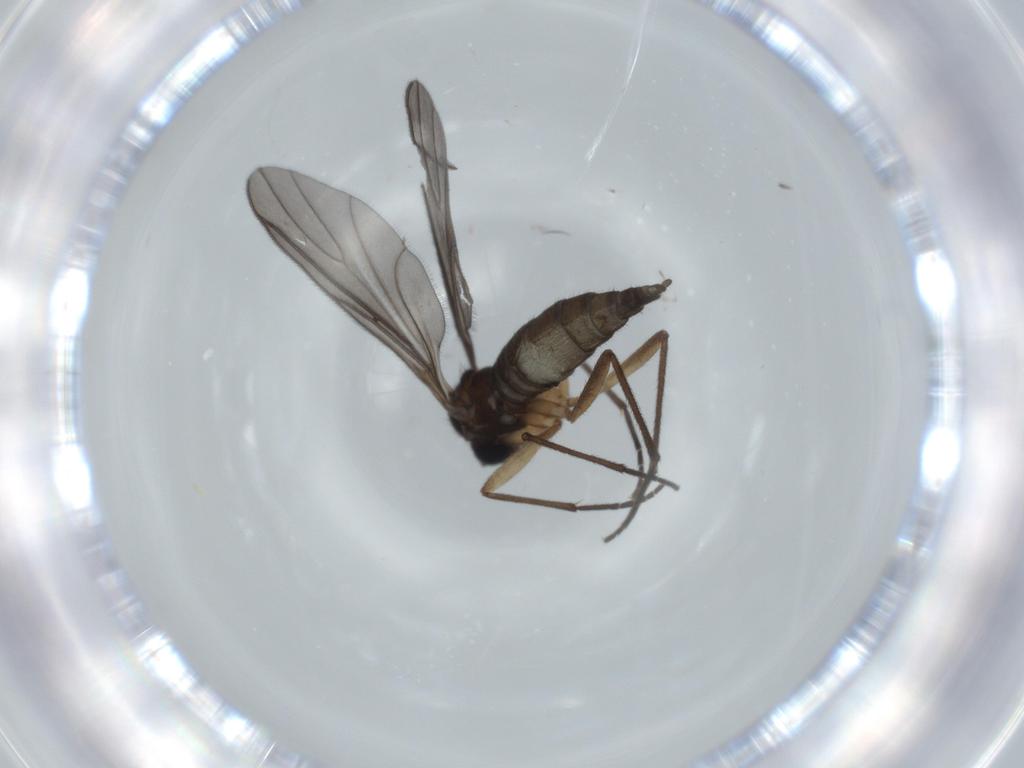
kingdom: Animalia
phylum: Arthropoda
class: Insecta
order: Diptera
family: Sciaridae
